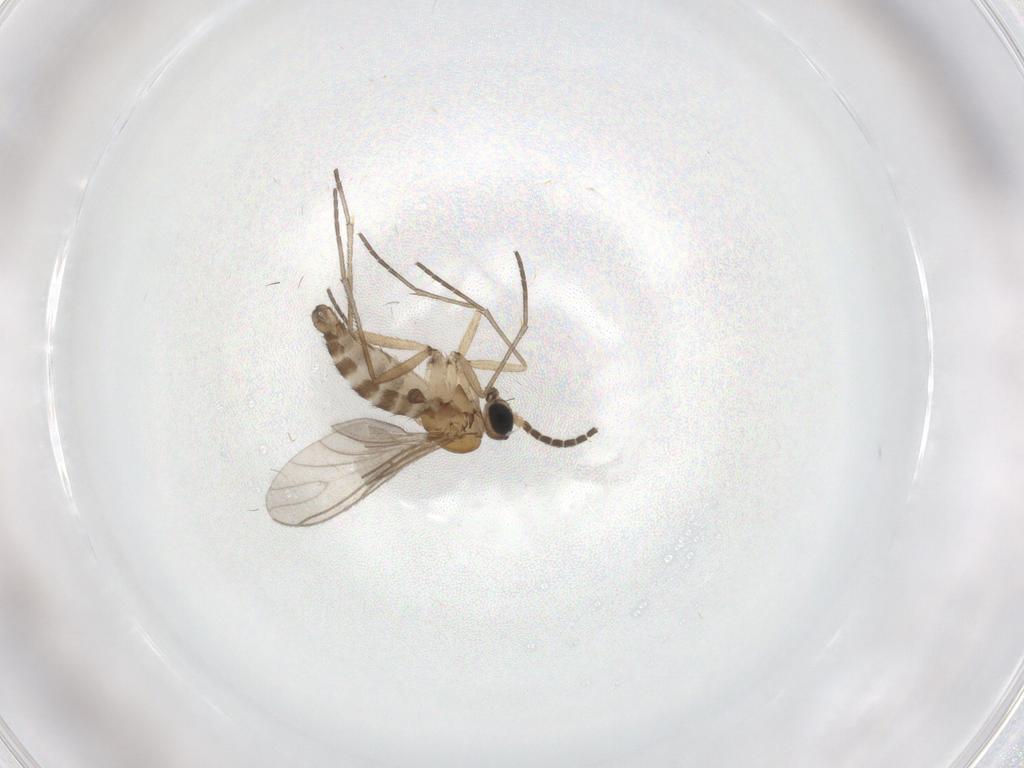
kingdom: Animalia
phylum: Arthropoda
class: Insecta
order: Diptera
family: Sciaridae
